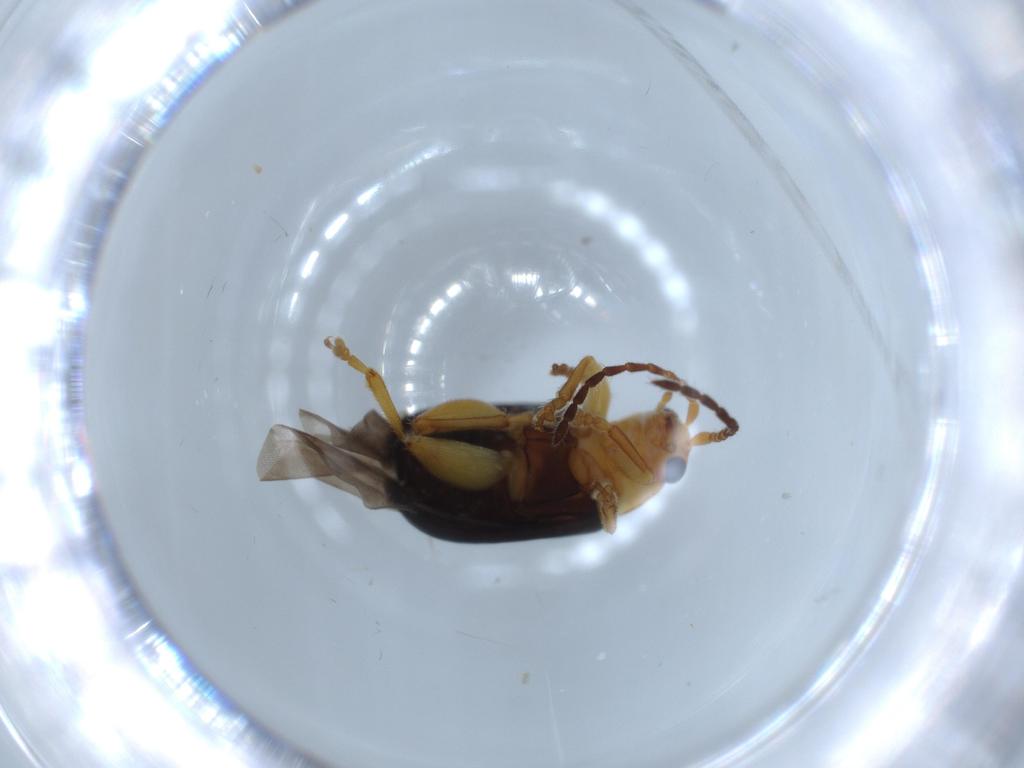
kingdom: Animalia
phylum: Arthropoda
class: Insecta
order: Coleoptera
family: Chrysomelidae
